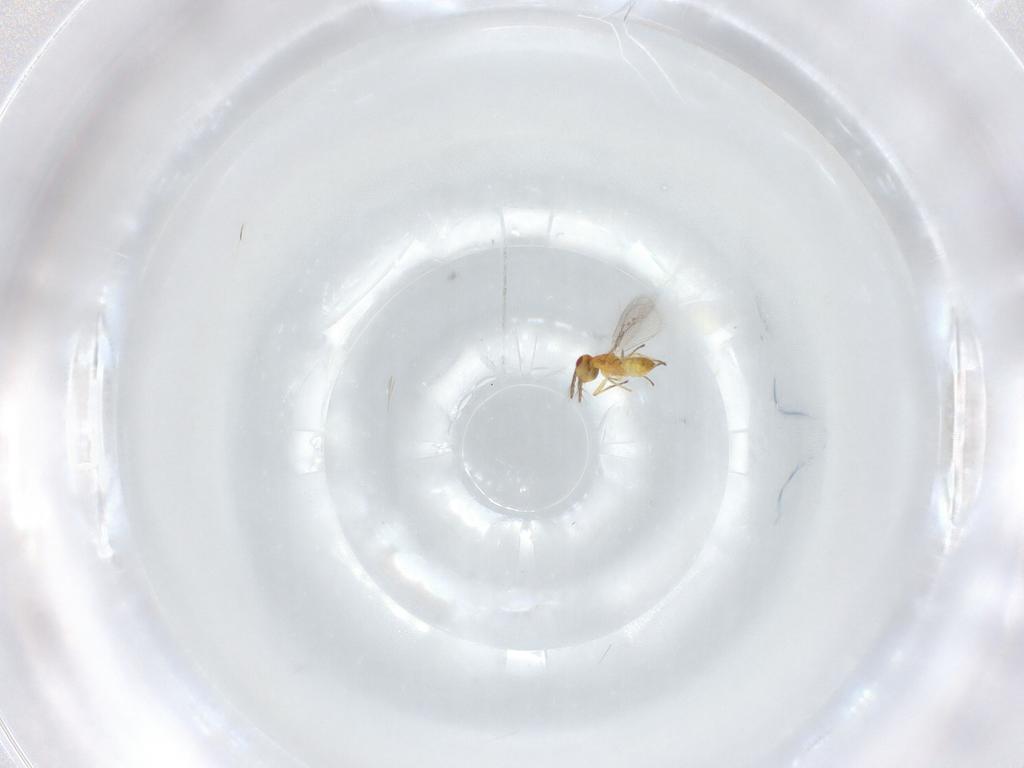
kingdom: Animalia
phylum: Arthropoda
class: Insecta
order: Hymenoptera
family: Eulophidae
